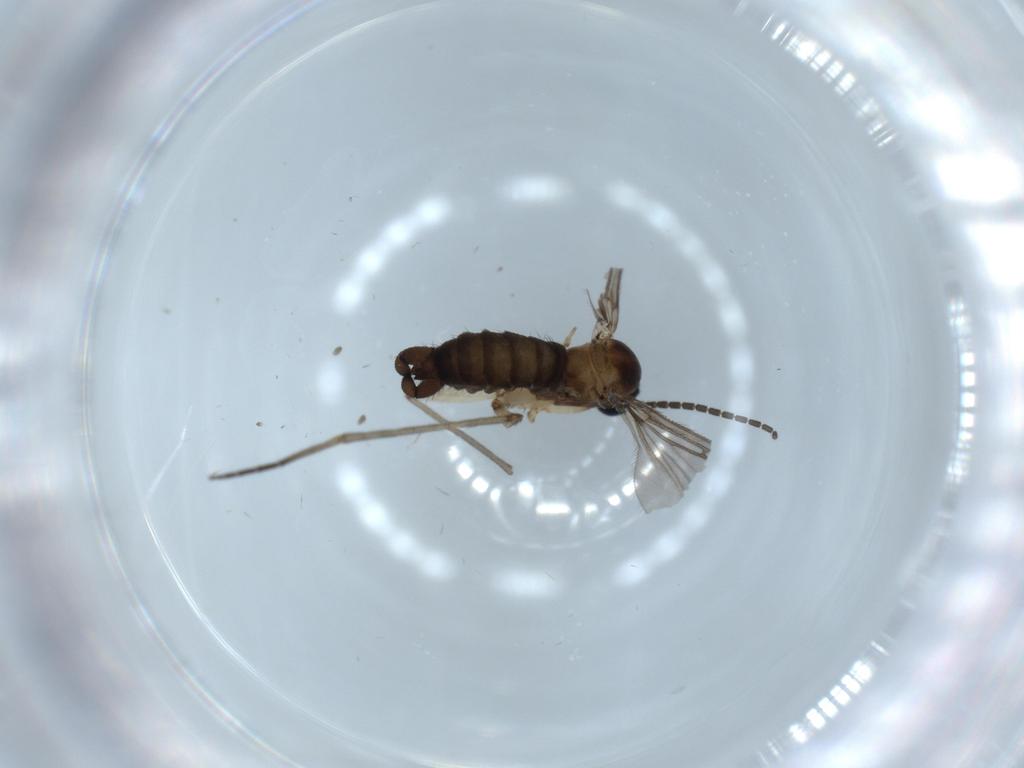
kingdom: Animalia
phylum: Arthropoda
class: Insecta
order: Diptera
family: Sciaridae
